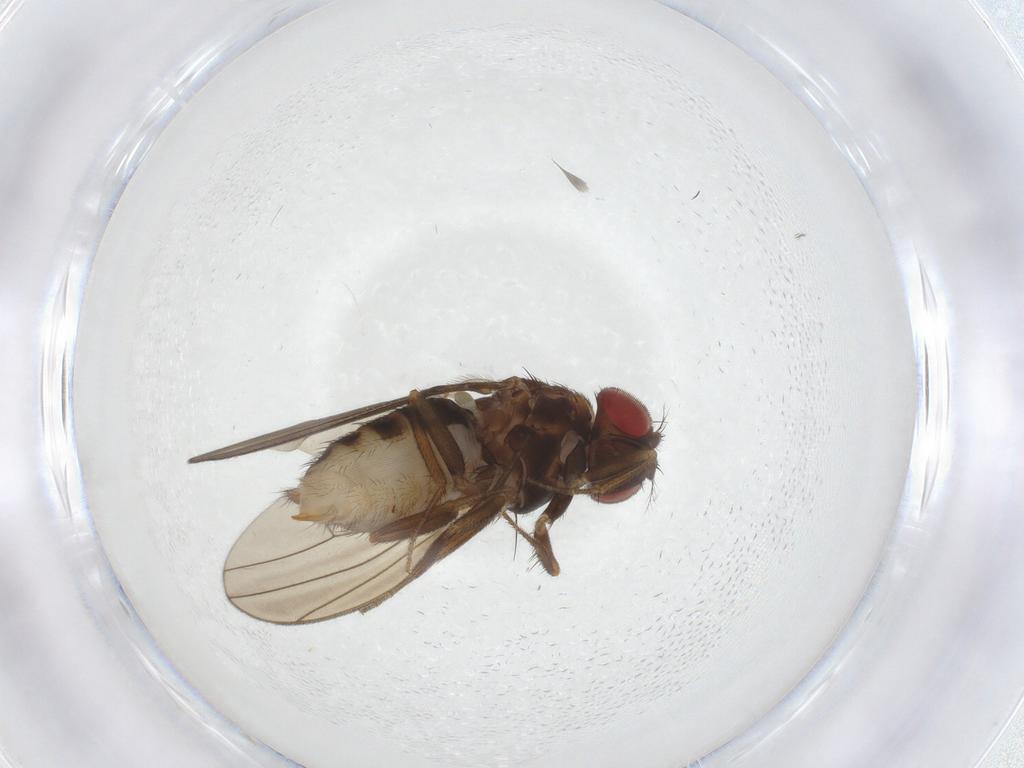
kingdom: Animalia
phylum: Arthropoda
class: Insecta
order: Diptera
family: Drosophilidae
